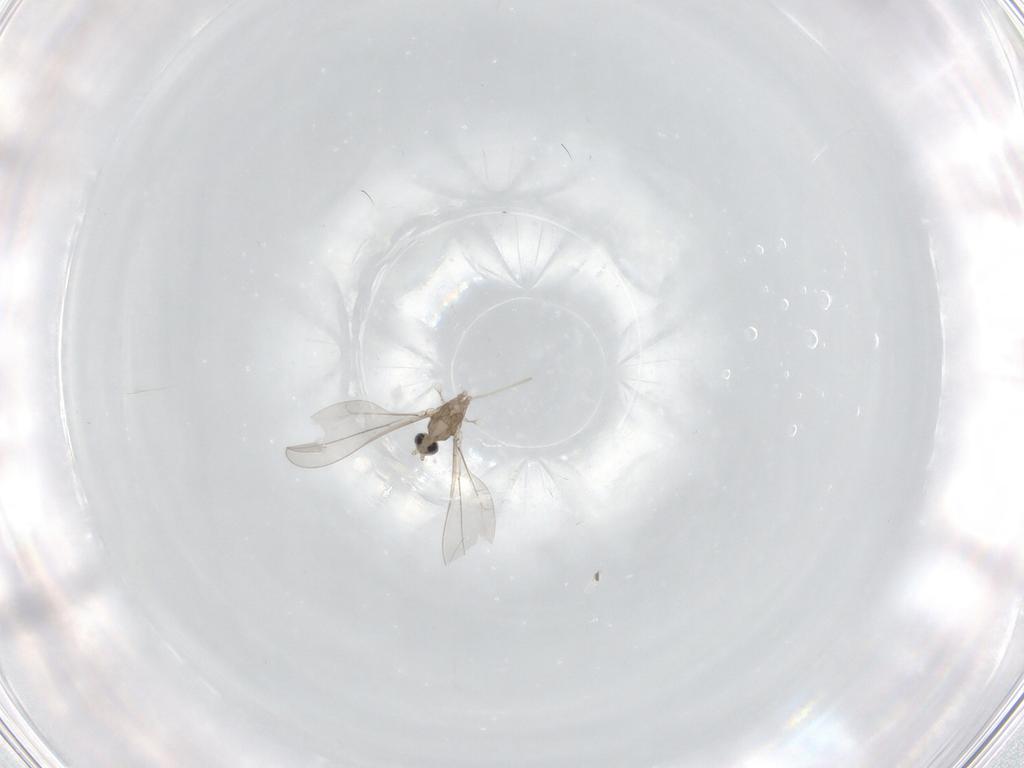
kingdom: Animalia
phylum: Arthropoda
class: Insecta
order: Diptera
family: Cecidomyiidae
